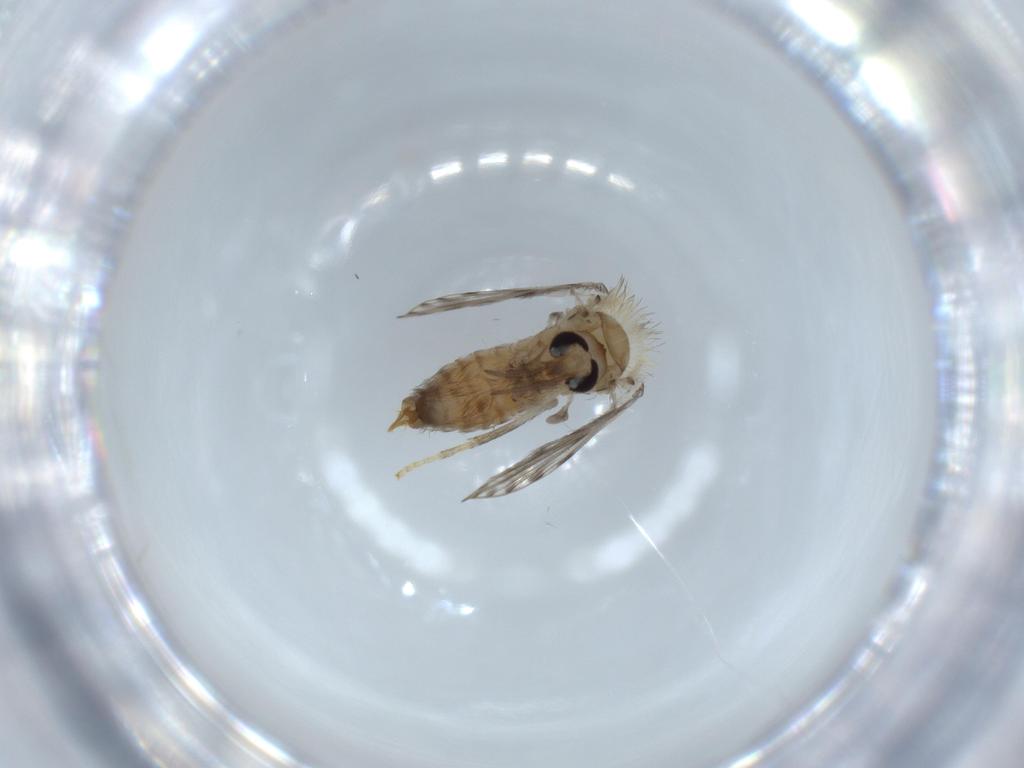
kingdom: Animalia
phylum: Arthropoda
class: Insecta
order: Diptera
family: Psychodidae
